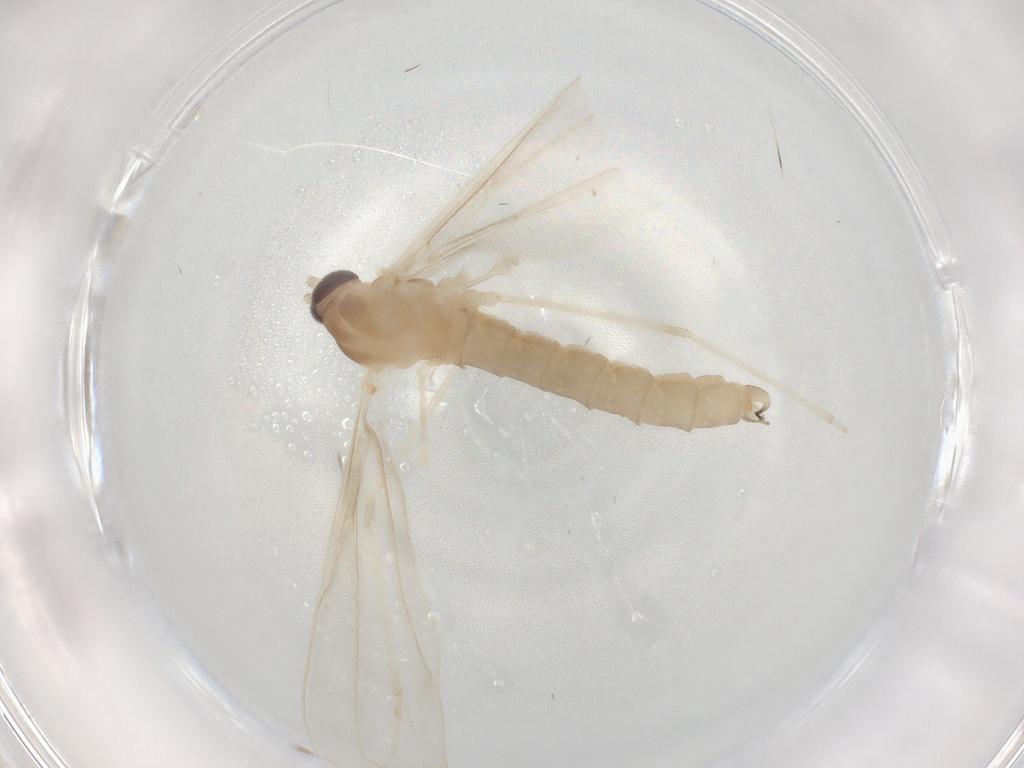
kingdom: Animalia
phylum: Arthropoda
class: Insecta
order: Diptera
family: Cecidomyiidae
